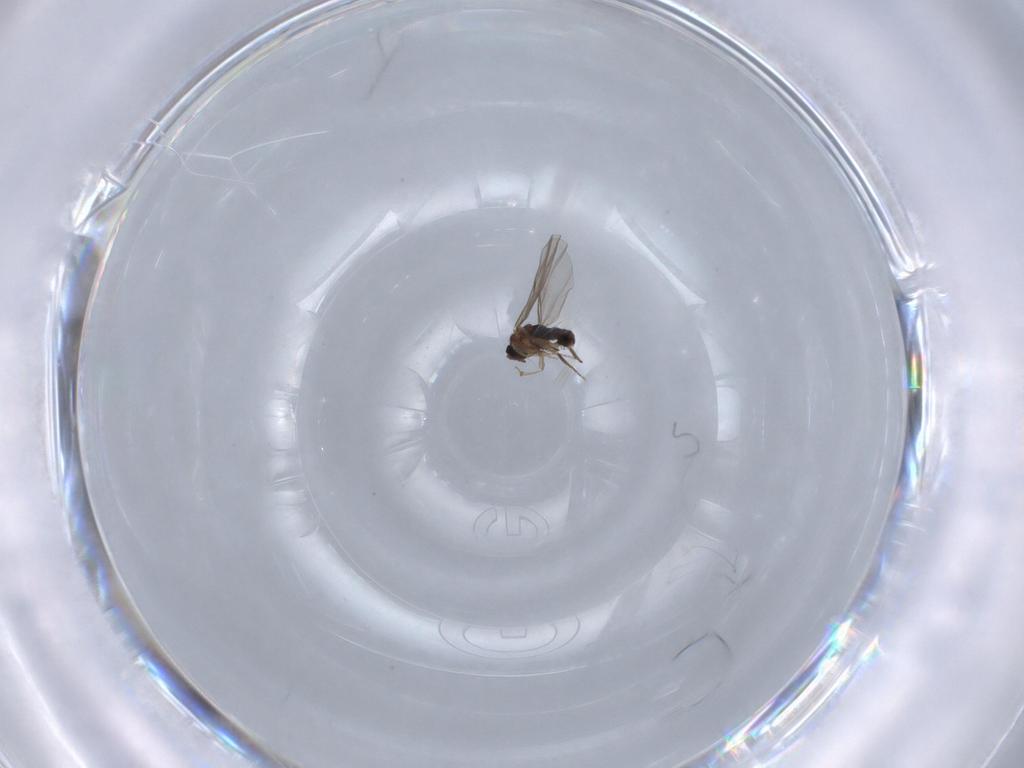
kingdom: Animalia
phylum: Arthropoda
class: Insecta
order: Diptera
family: Phoridae
